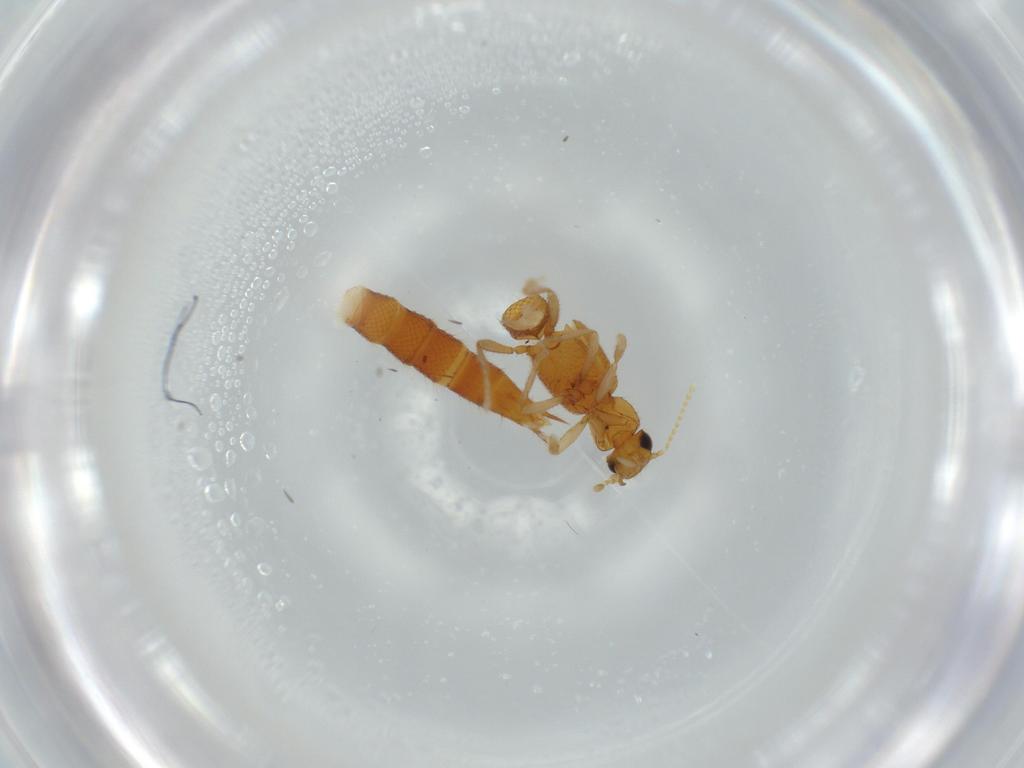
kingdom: Animalia
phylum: Arthropoda
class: Insecta
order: Coleoptera
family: Staphylinidae
